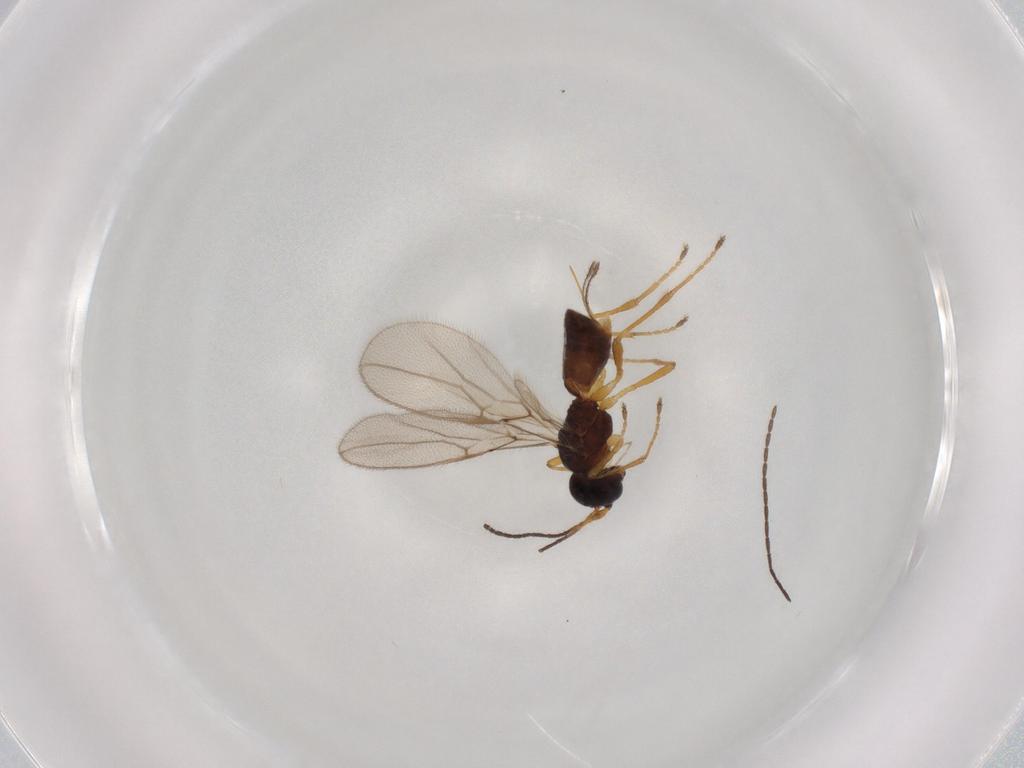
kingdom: Animalia
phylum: Arthropoda
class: Insecta
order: Hymenoptera
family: Braconidae
